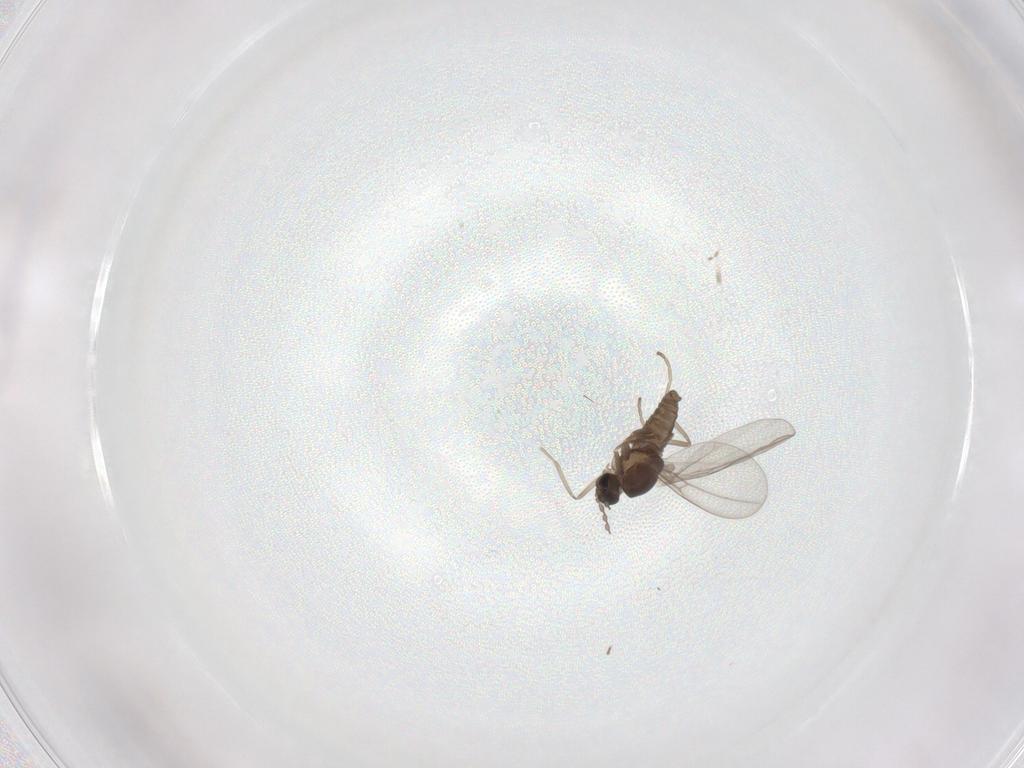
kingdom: Animalia
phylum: Arthropoda
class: Insecta
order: Diptera
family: Cecidomyiidae
